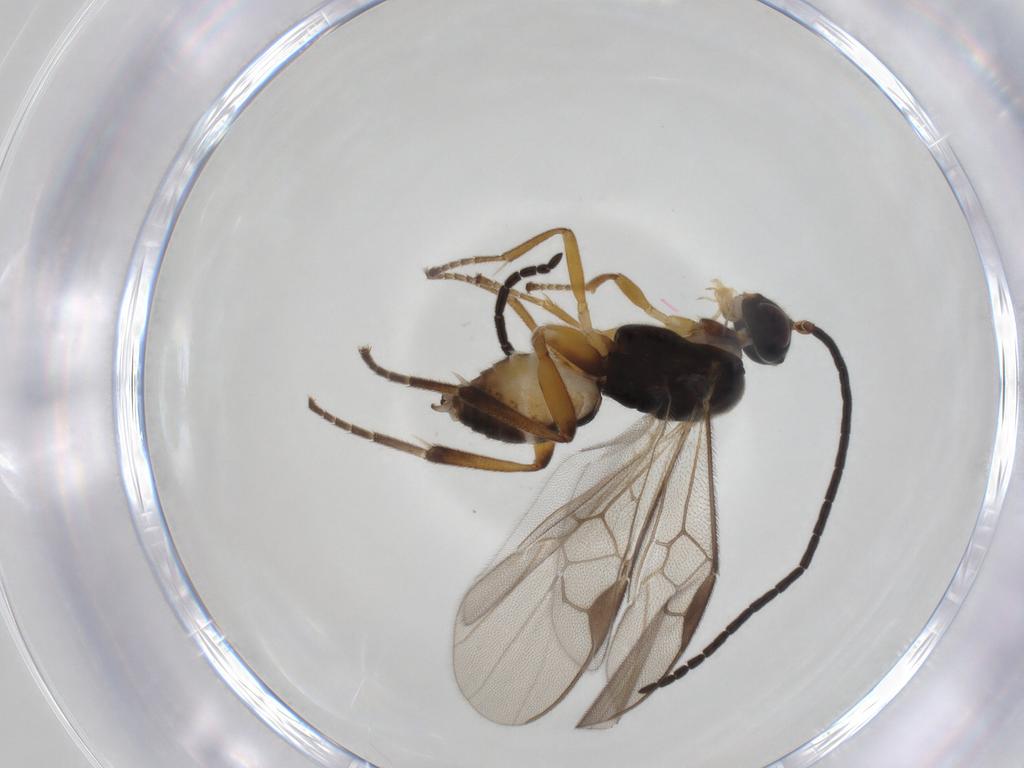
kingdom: Animalia
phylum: Arthropoda
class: Insecta
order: Hymenoptera
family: Braconidae
